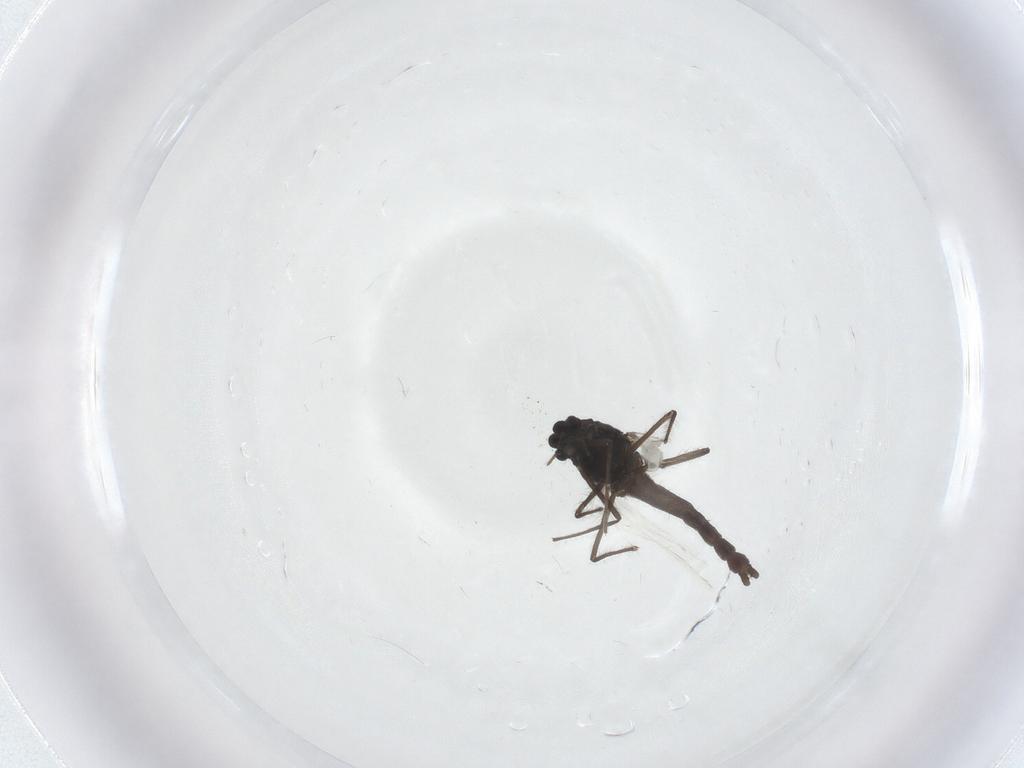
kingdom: Animalia
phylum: Arthropoda
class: Insecta
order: Diptera
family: Chironomidae
